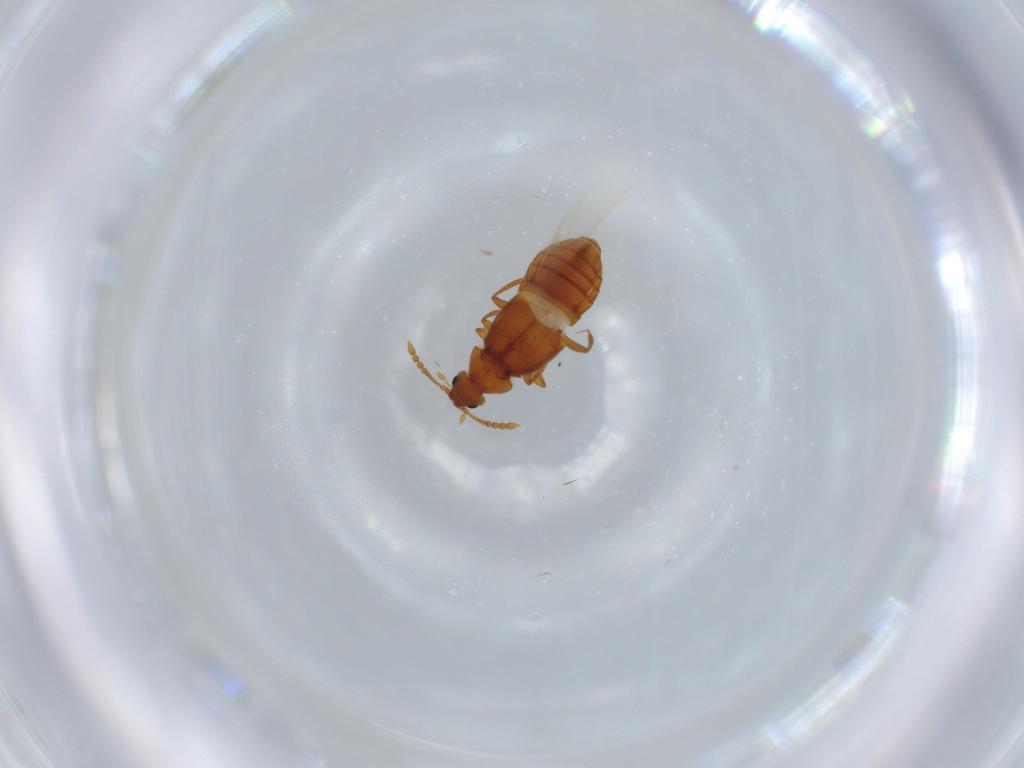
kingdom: Animalia
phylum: Arthropoda
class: Insecta
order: Coleoptera
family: Staphylinidae
